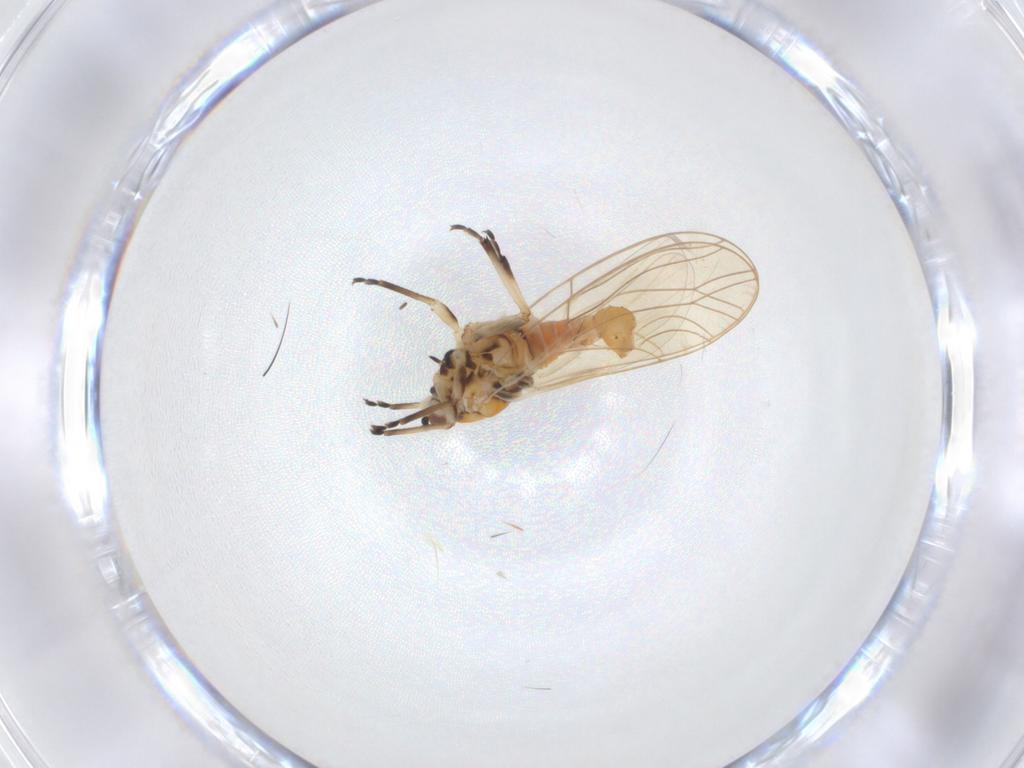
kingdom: Animalia
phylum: Arthropoda
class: Insecta
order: Hemiptera
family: Triozidae
